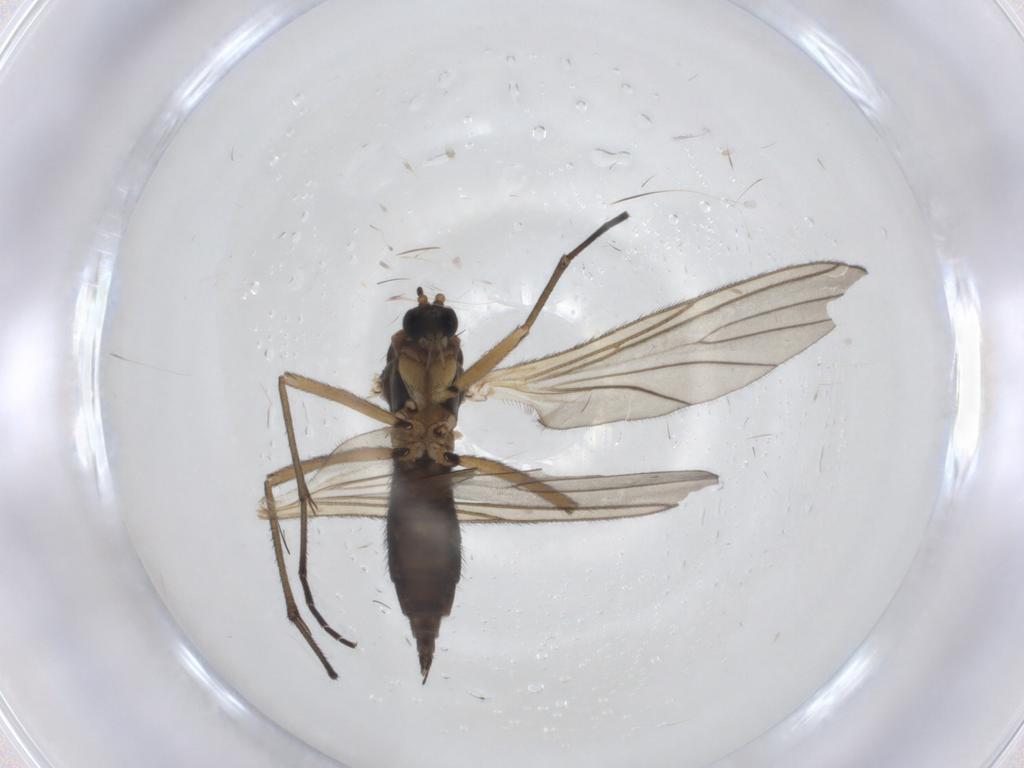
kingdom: Animalia
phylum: Arthropoda
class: Insecta
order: Diptera
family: Sciaridae
